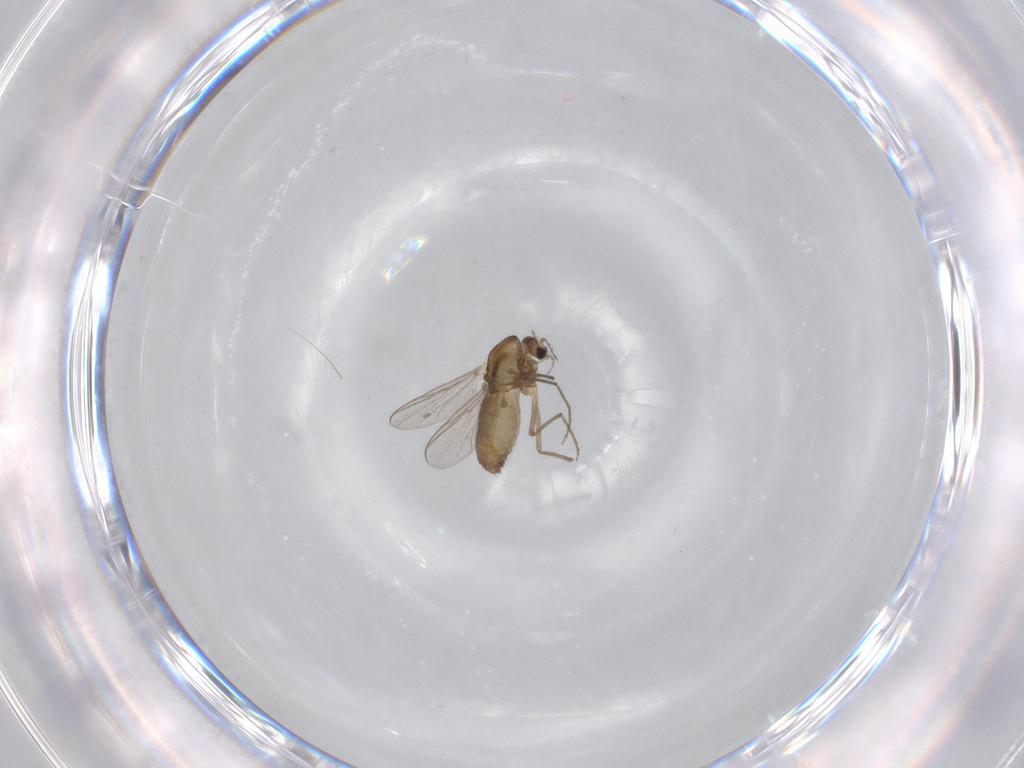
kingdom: Animalia
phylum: Arthropoda
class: Insecta
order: Diptera
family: Chironomidae
